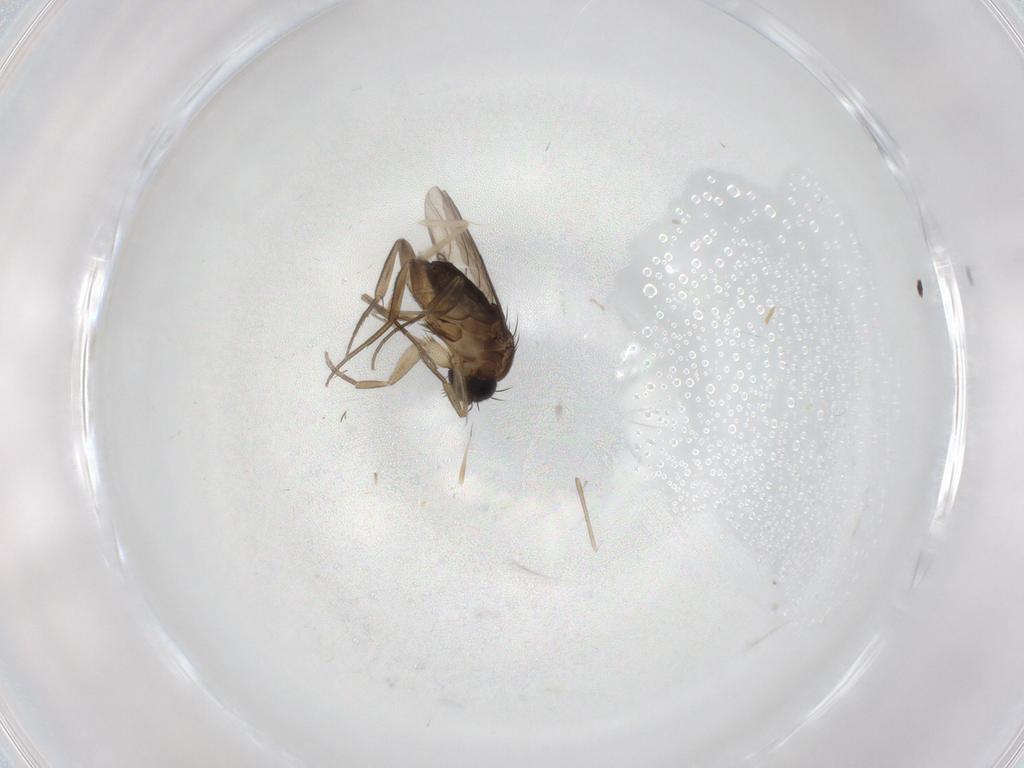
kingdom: Animalia
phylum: Arthropoda
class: Insecta
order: Diptera
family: Phoridae
